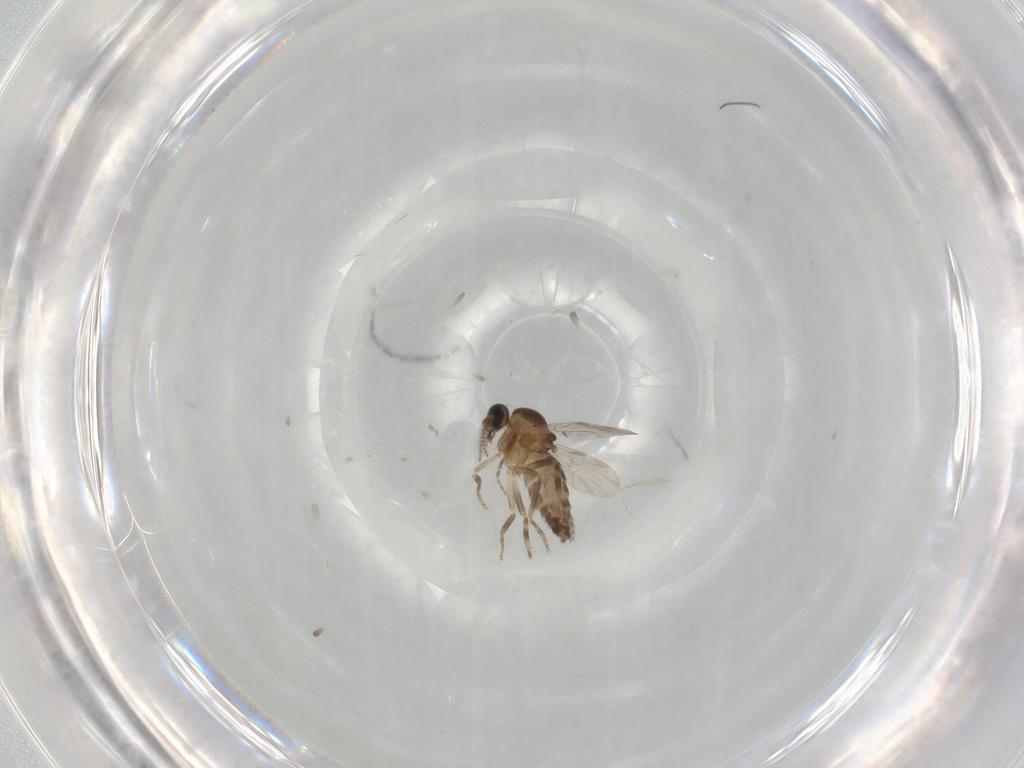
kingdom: Animalia
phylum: Arthropoda
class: Insecta
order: Diptera
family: Ceratopogonidae
